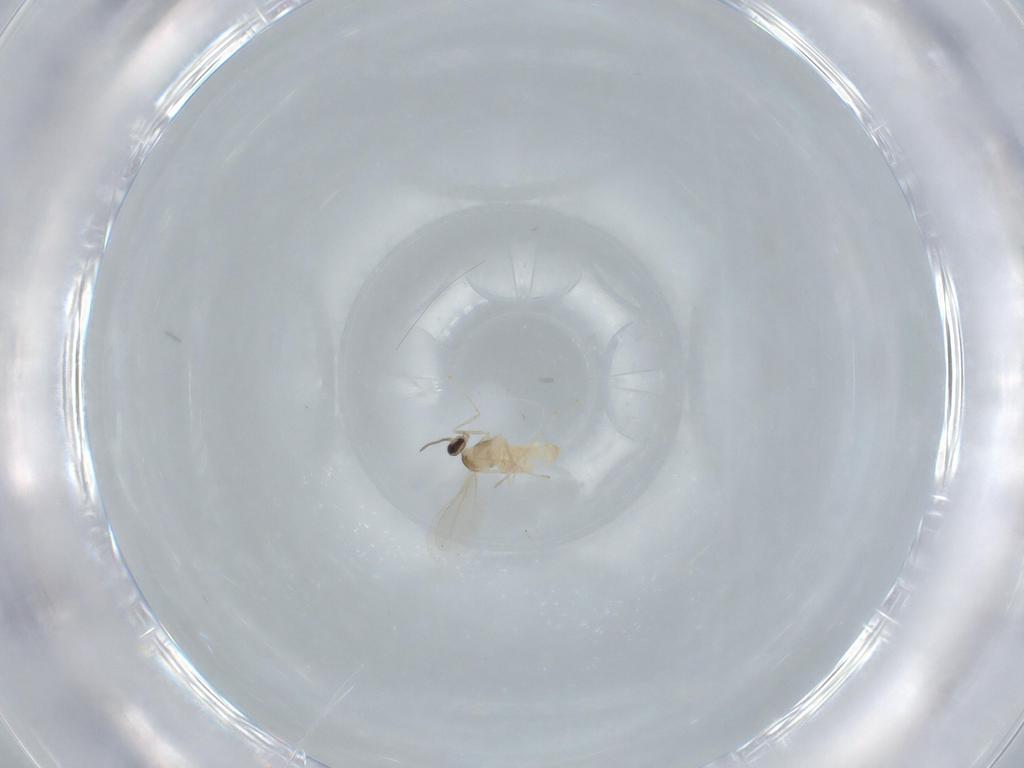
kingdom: Animalia
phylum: Arthropoda
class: Insecta
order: Diptera
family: Cecidomyiidae
